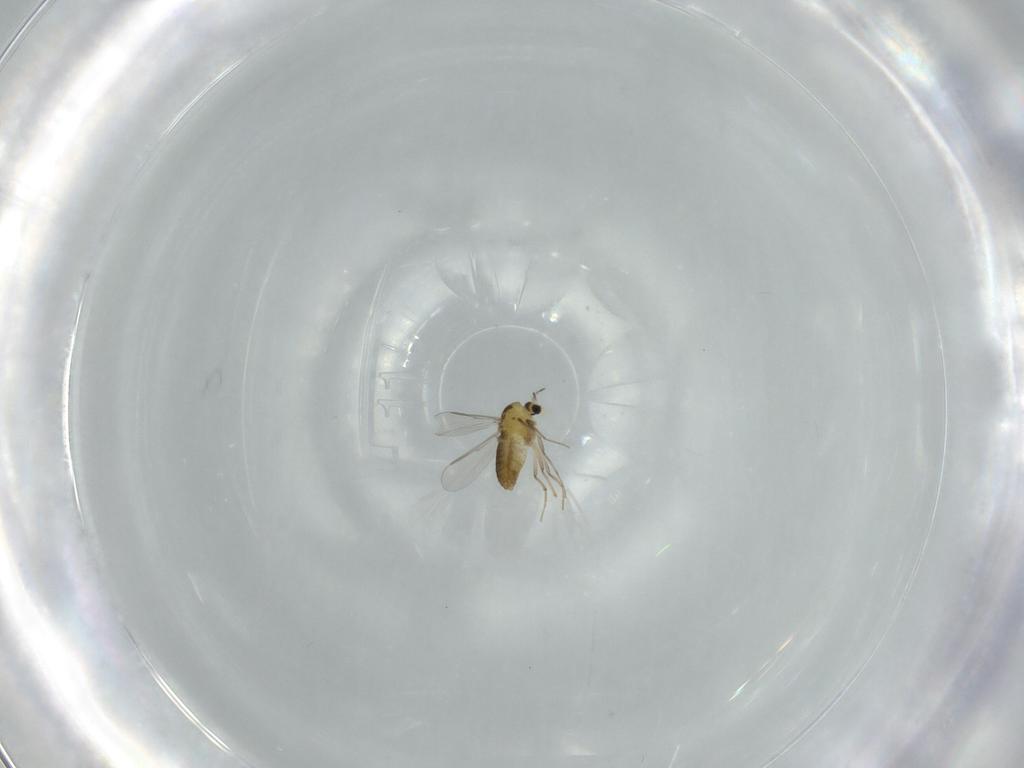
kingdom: Animalia
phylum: Arthropoda
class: Insecta
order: Diptera
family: Chironomidae
